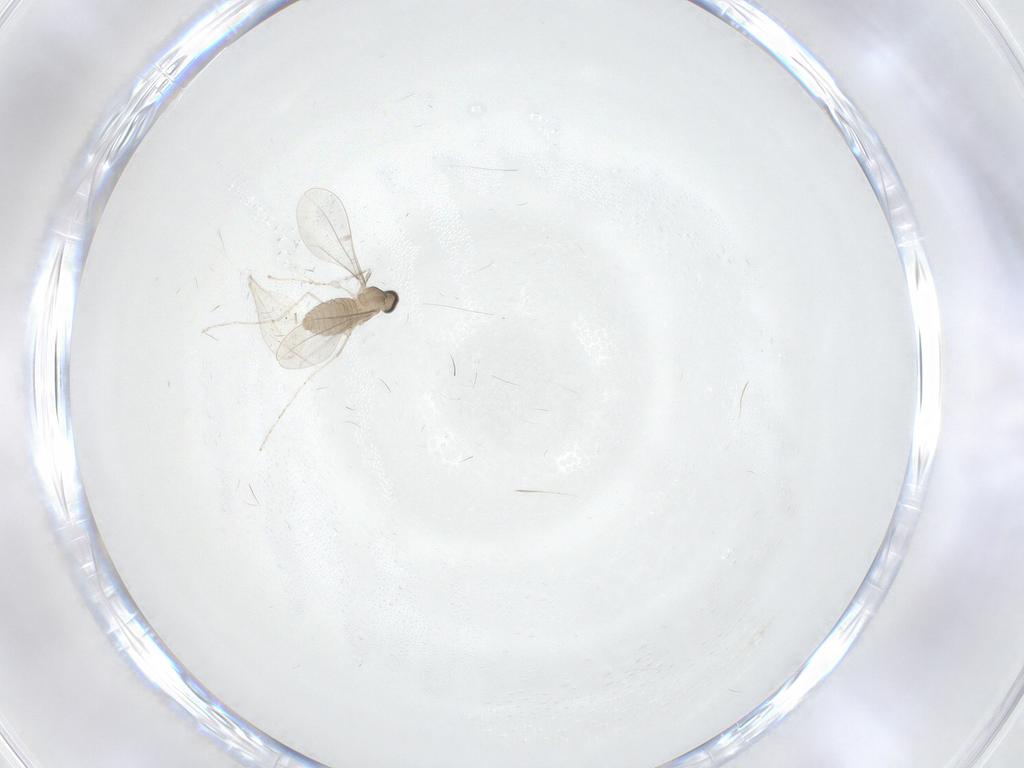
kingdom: Animalia
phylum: Arthropoda
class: Insecta
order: Diptera
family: Cecidomyiidae
